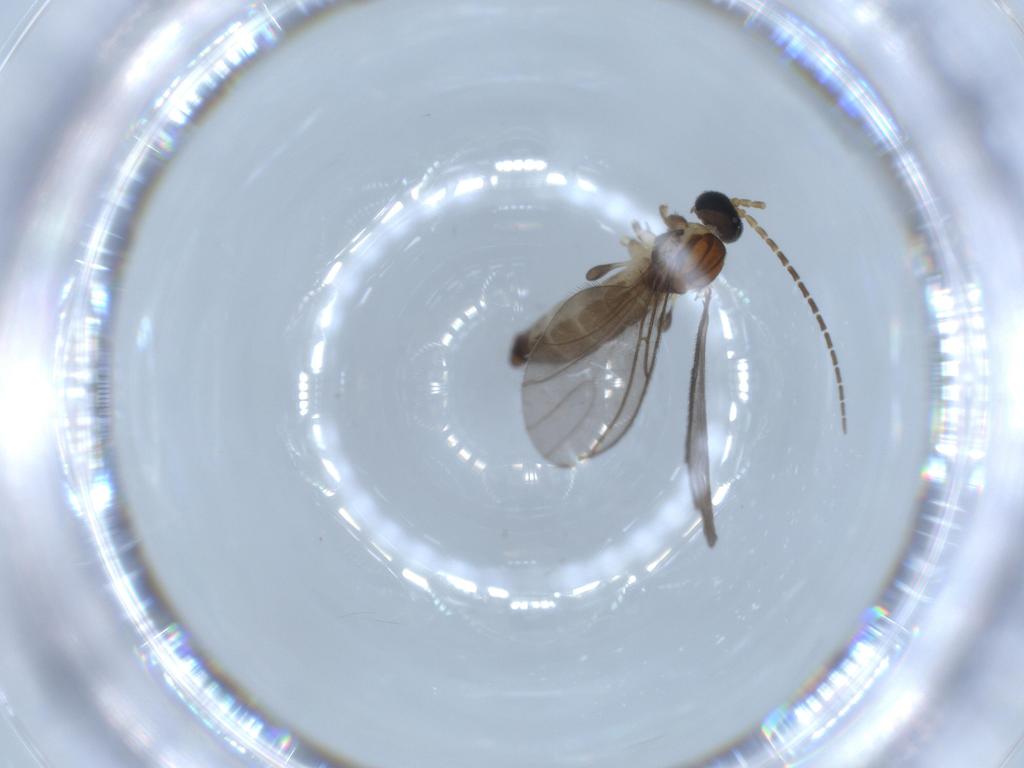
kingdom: Animalia
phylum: Arthropoda
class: Insecta
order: Diptera
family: Sciaridae
